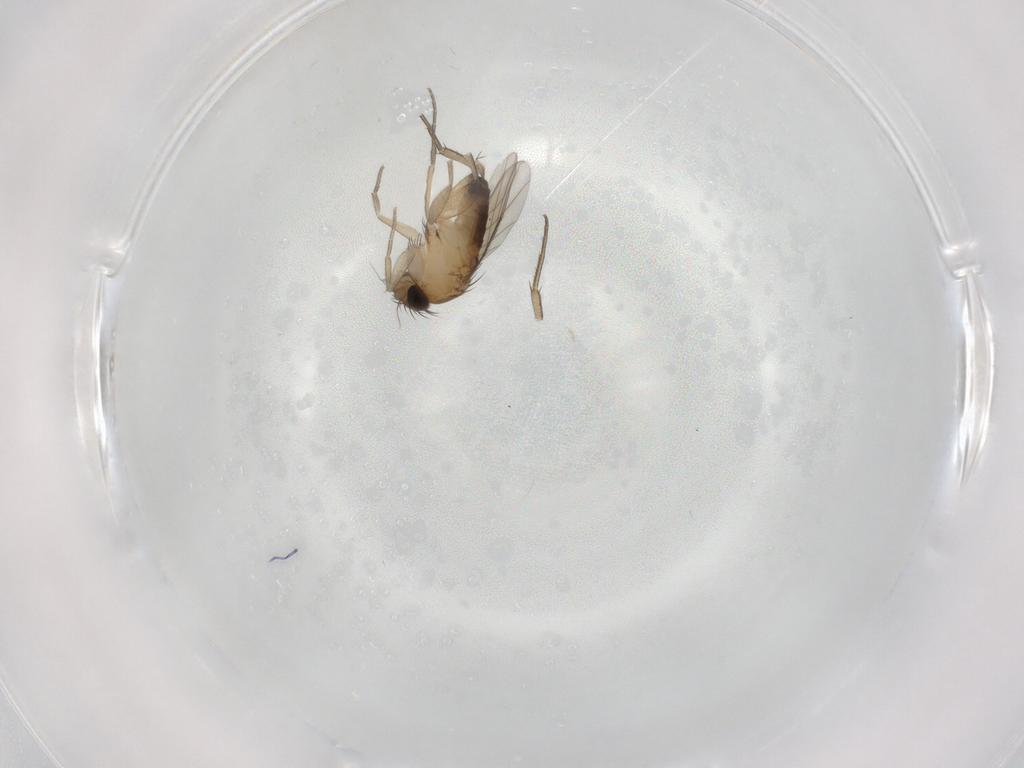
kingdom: Animalia
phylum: Arthropoda
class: Insecta
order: Diptera
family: Phoridae
